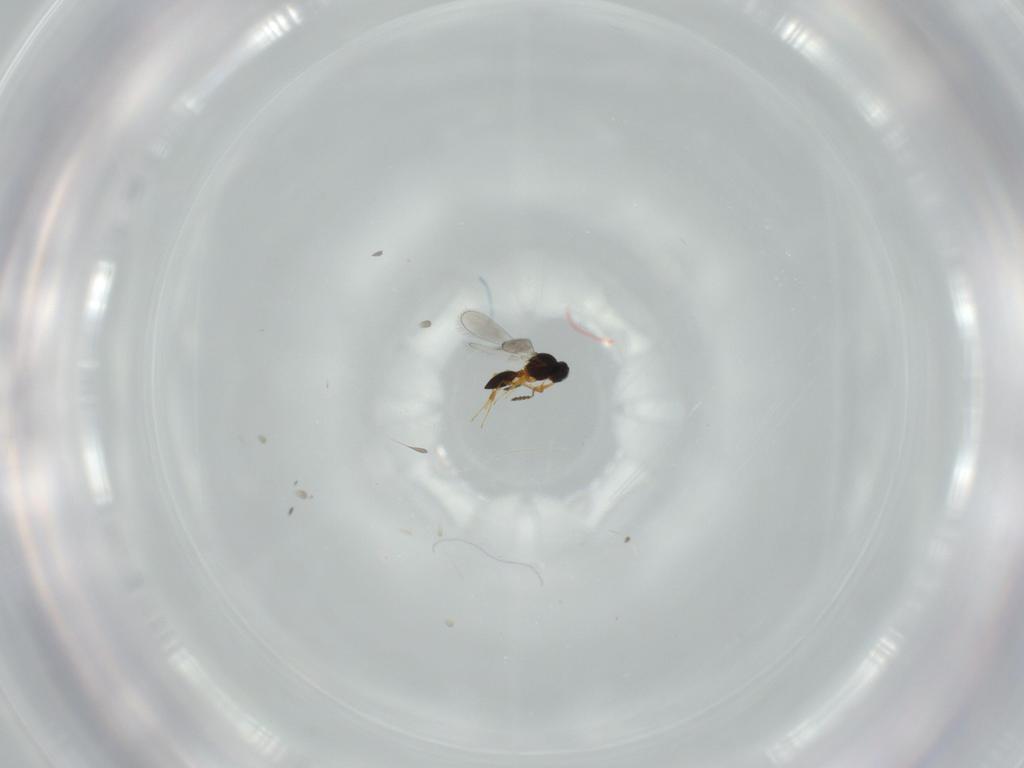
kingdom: Animalia
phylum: Arthropoda
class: Insecta
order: Hymenoptera
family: Platygastridae
